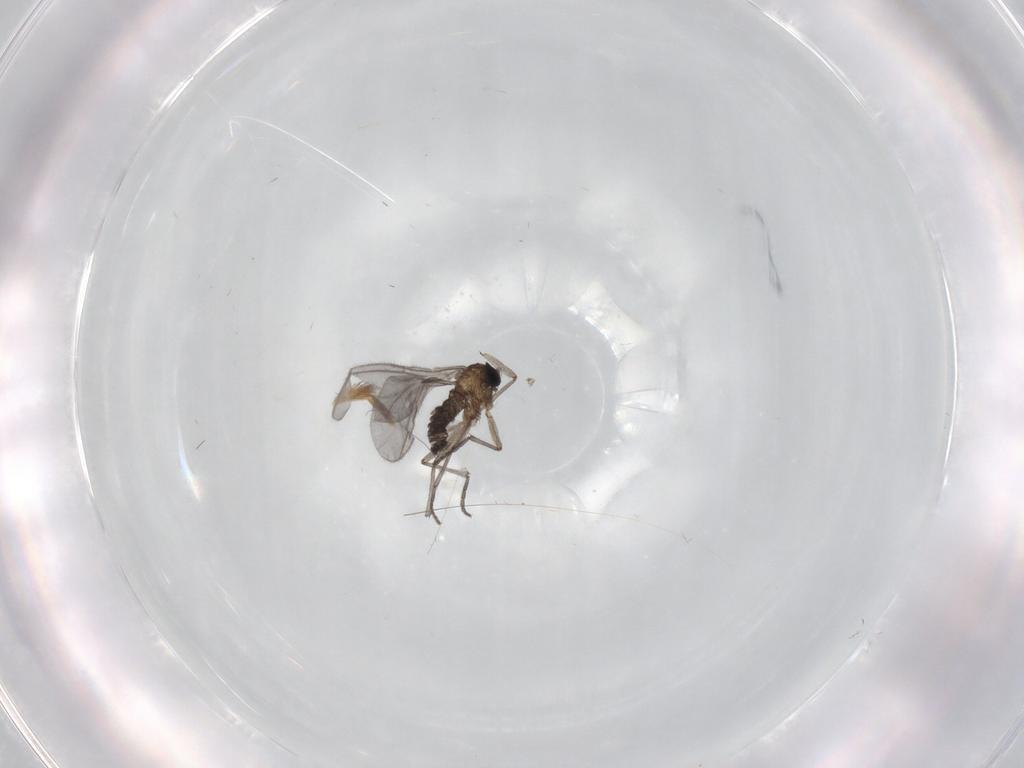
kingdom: Animalia
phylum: Arthropoda
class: Insecta
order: Diptera
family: Sciaridae
